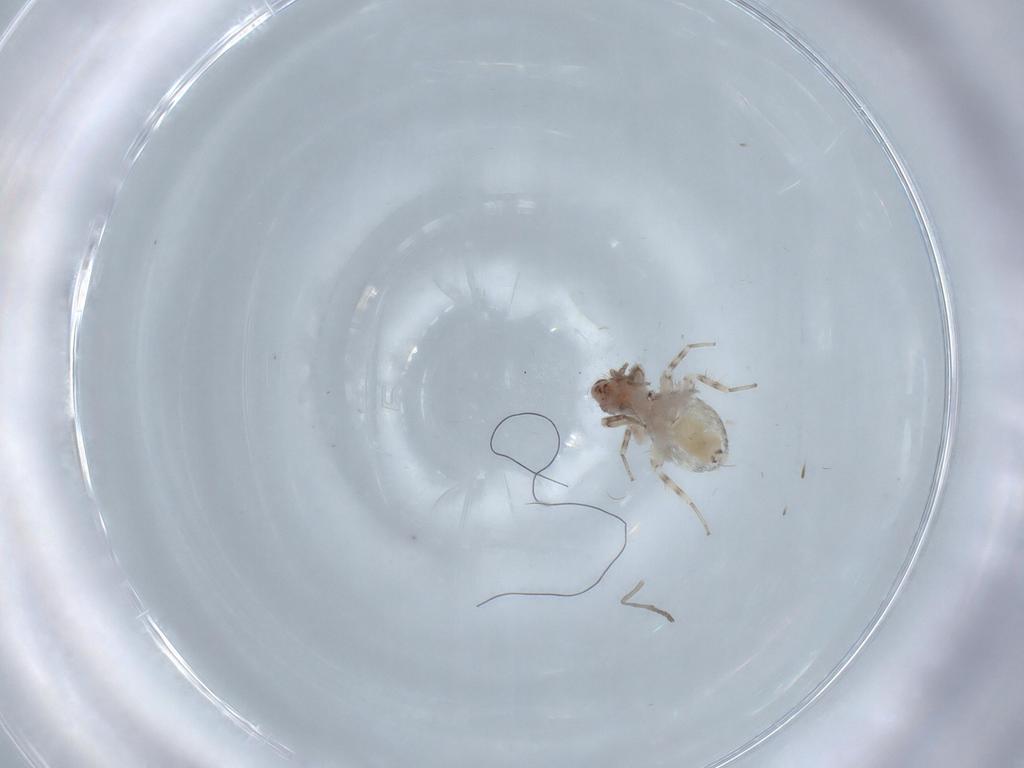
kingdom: Animalia
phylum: Arthropoda
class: Insecta
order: Psocodea
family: Lepidopsocidae
